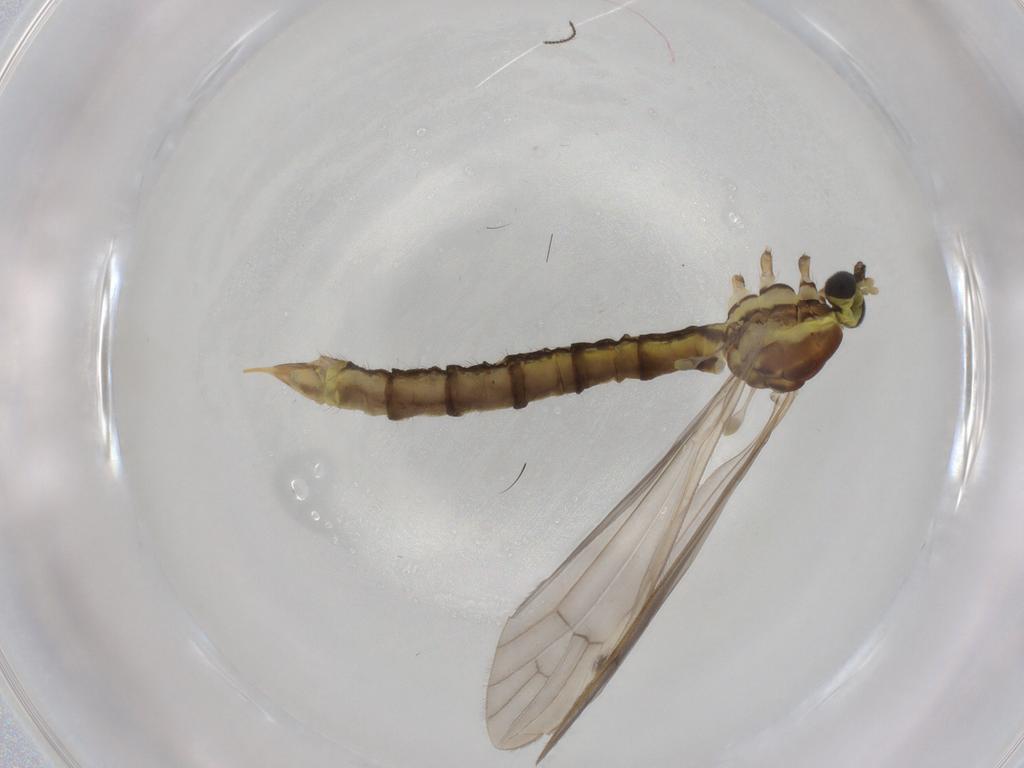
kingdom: Animalia
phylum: Arthropoda
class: Insecta
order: Diptera
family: Limoniidae
